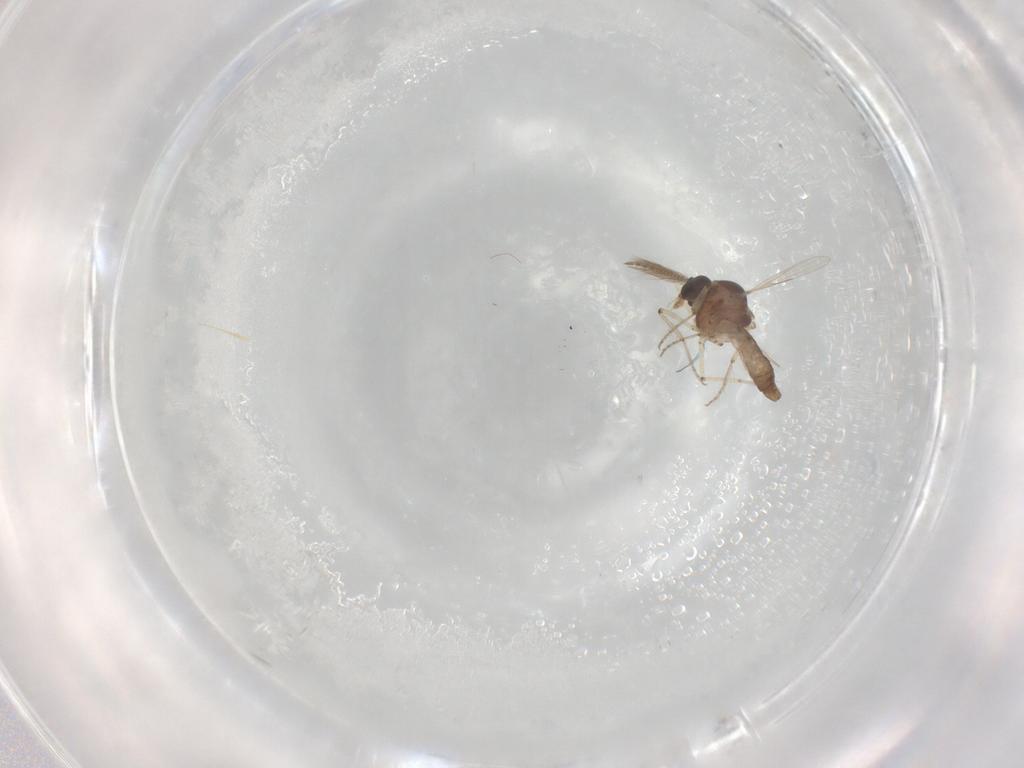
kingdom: Animalia
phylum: Arthropoda
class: Insecta
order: Diptera
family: Ceratopogonidae
